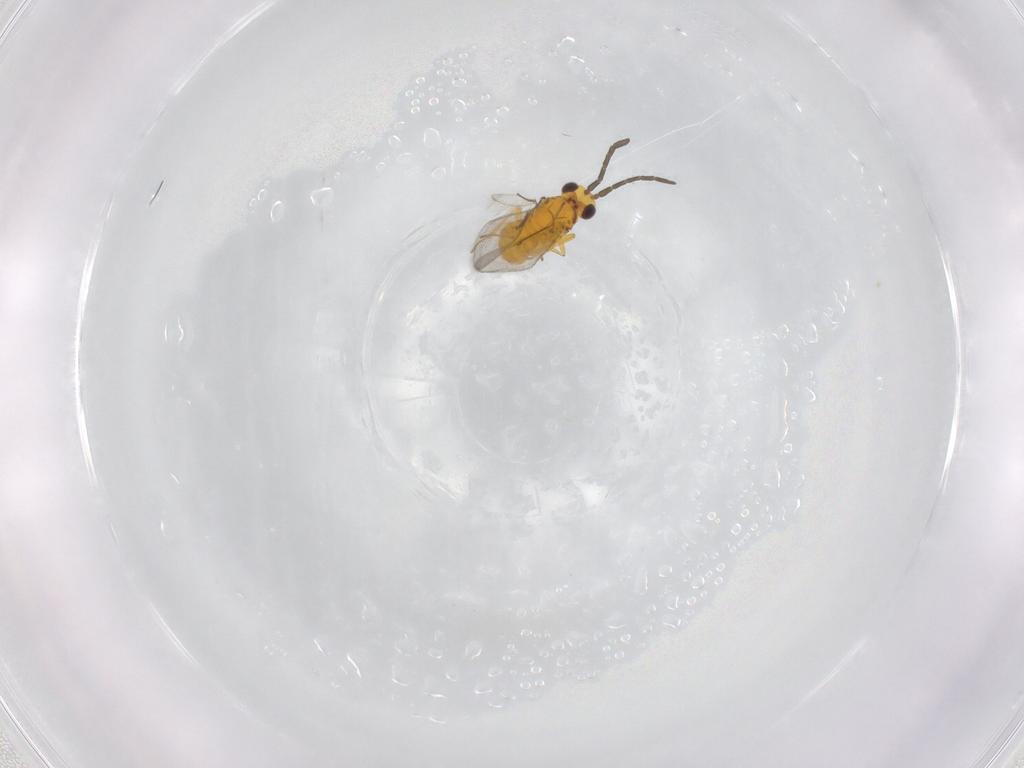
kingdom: Animalia
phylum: Arthropoda
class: Insecta
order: Hymenoptera
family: Aphelinidae
